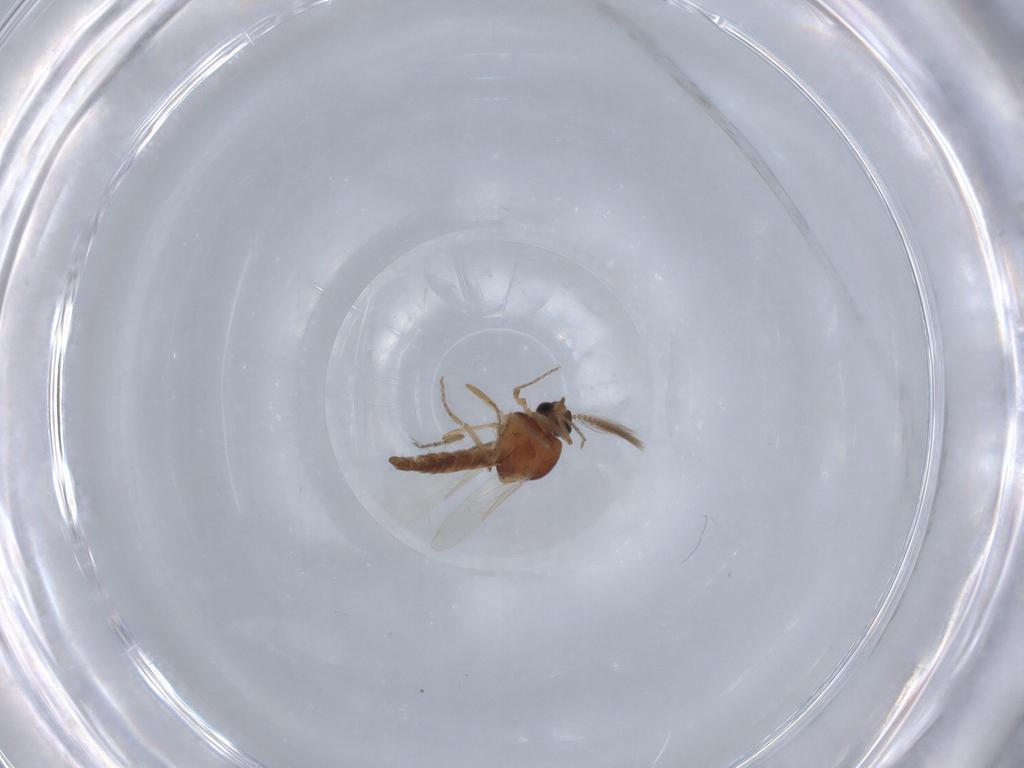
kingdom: Animalia
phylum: Arthropoda
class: Insecta
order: Diptera
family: Ceratopogonidae
